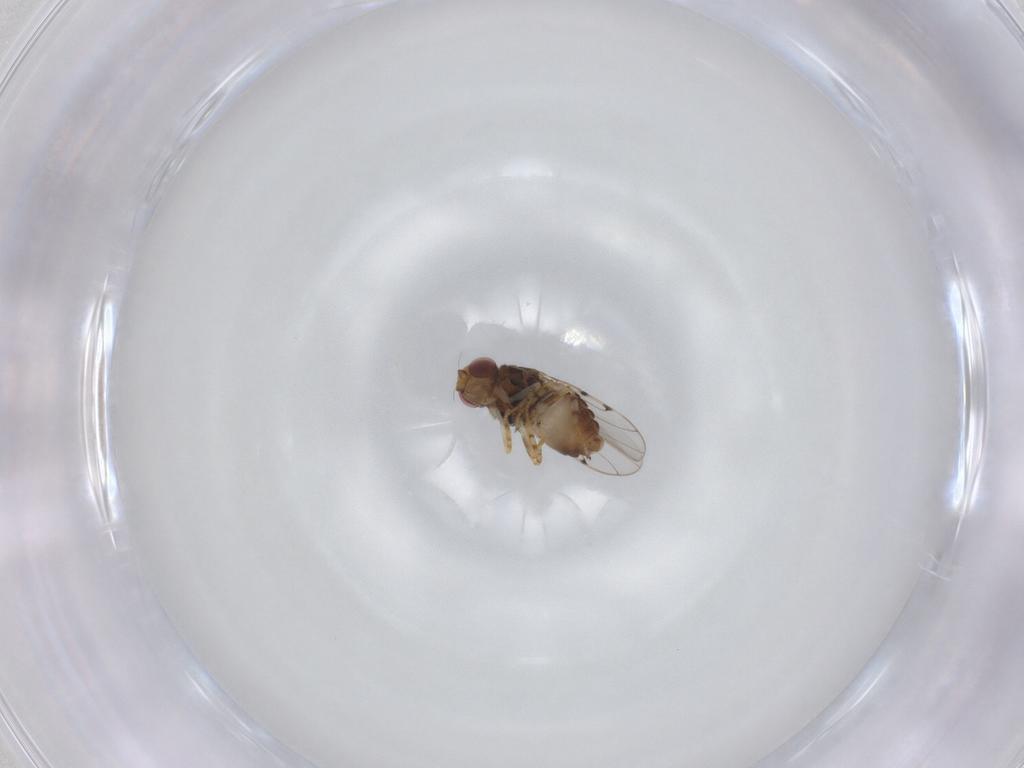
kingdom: Animalia
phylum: Arthropoda
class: Insecta
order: Diptera
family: Chloropidae
